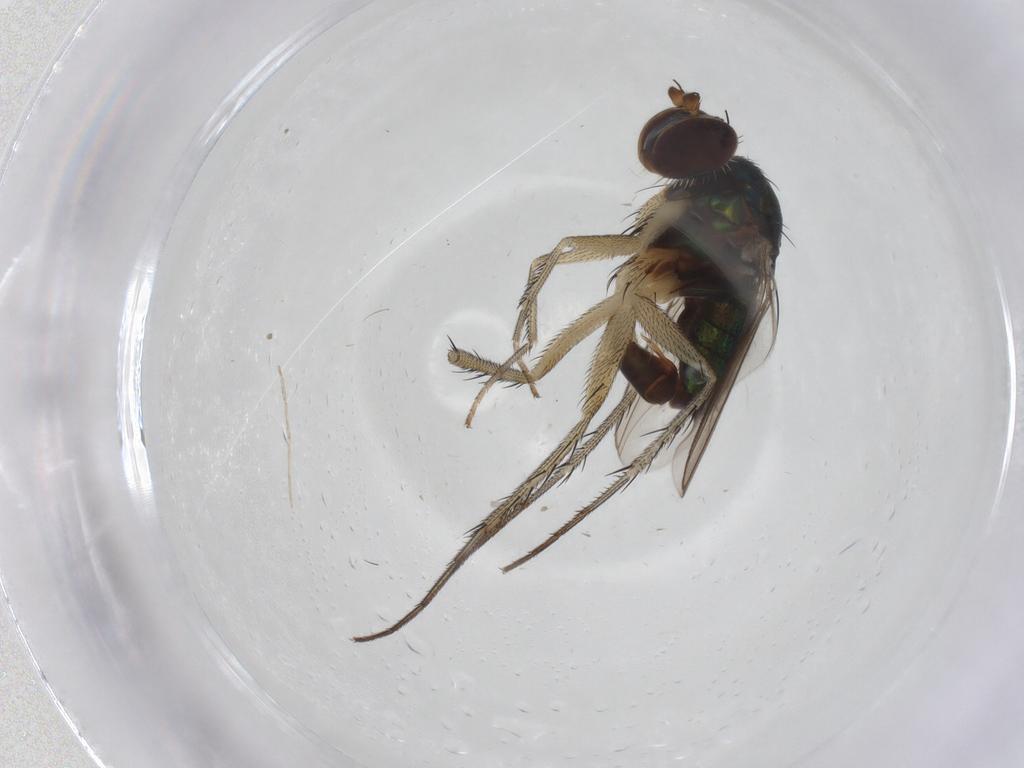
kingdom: Animalia
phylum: Arthropoda
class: Insecta
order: Diptera
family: Dolichopodidae
